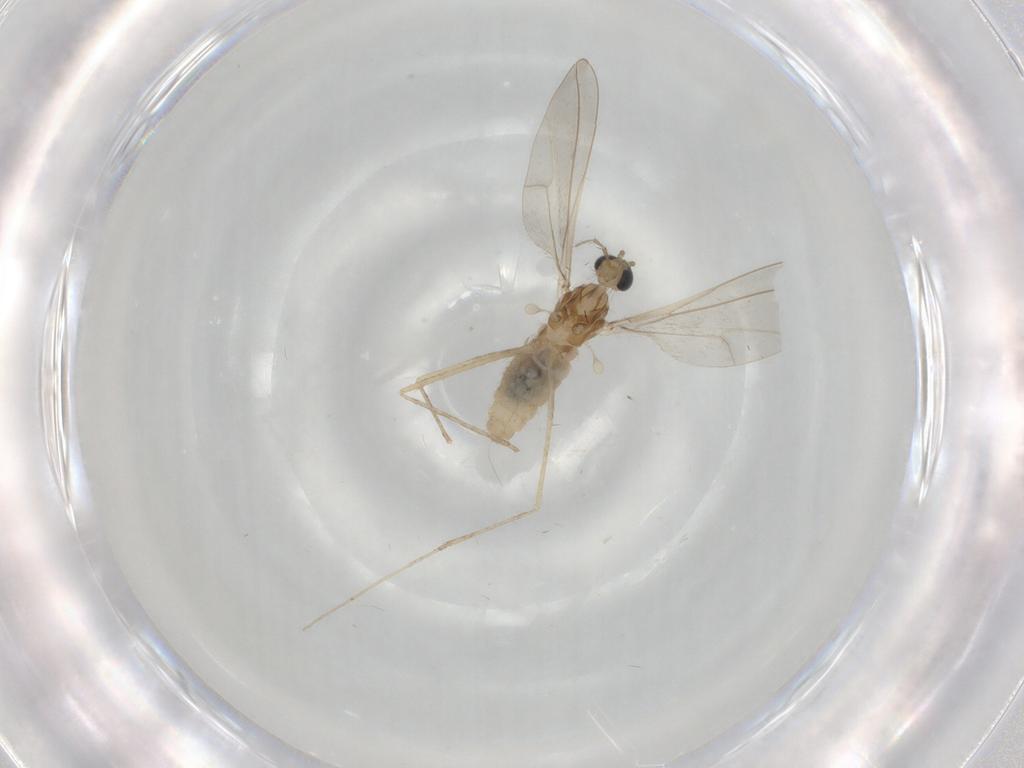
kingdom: Animalia
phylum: Arthropoda
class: Insecta
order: Diptera
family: Cecidomyiidae
